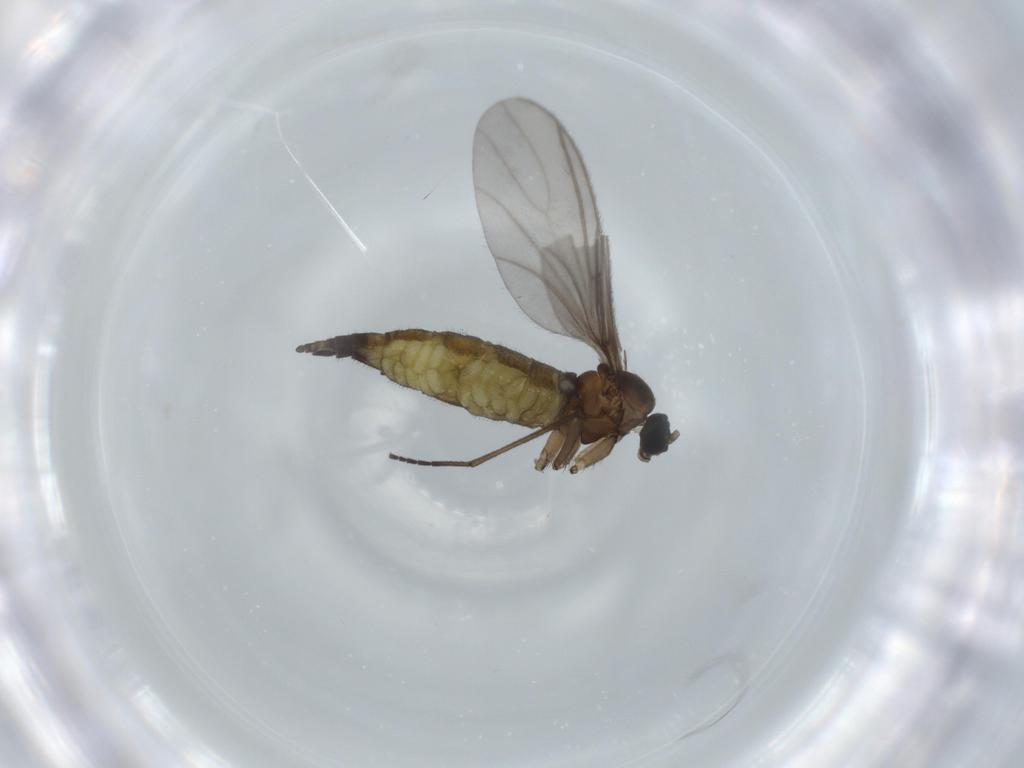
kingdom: Animalia
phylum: Arthropoda
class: Insecta
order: Diptera
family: Sciaridae
